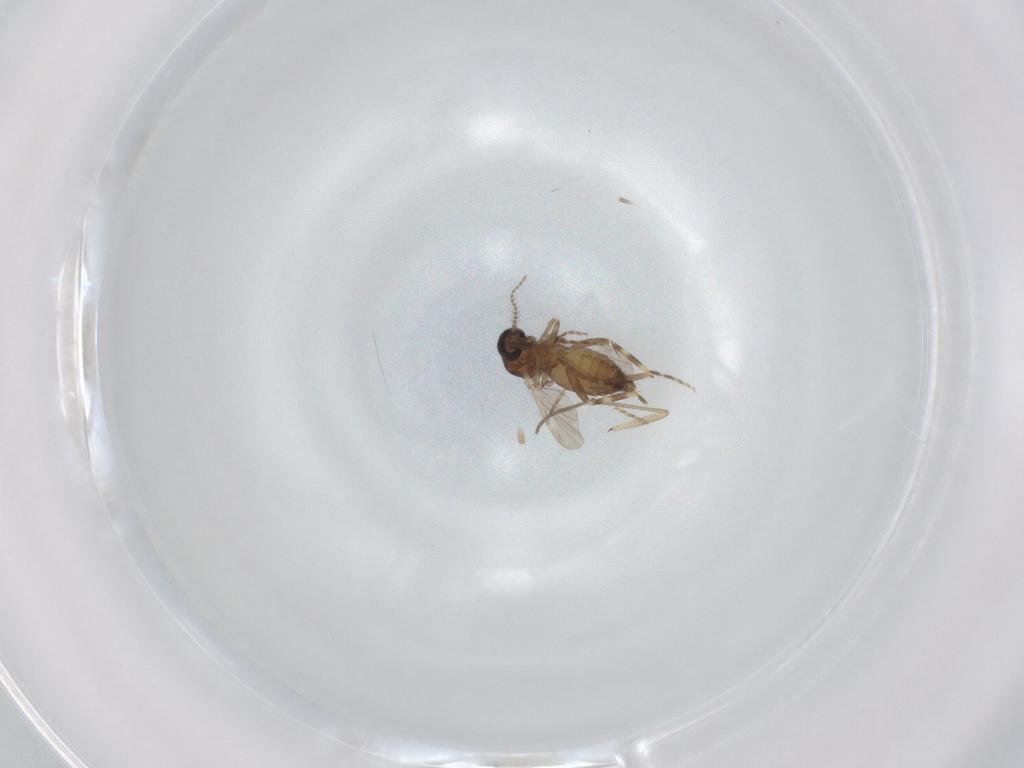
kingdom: Animalia
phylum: Arthropoda
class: Insecta
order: Diptera
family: Ceratopogonidae
